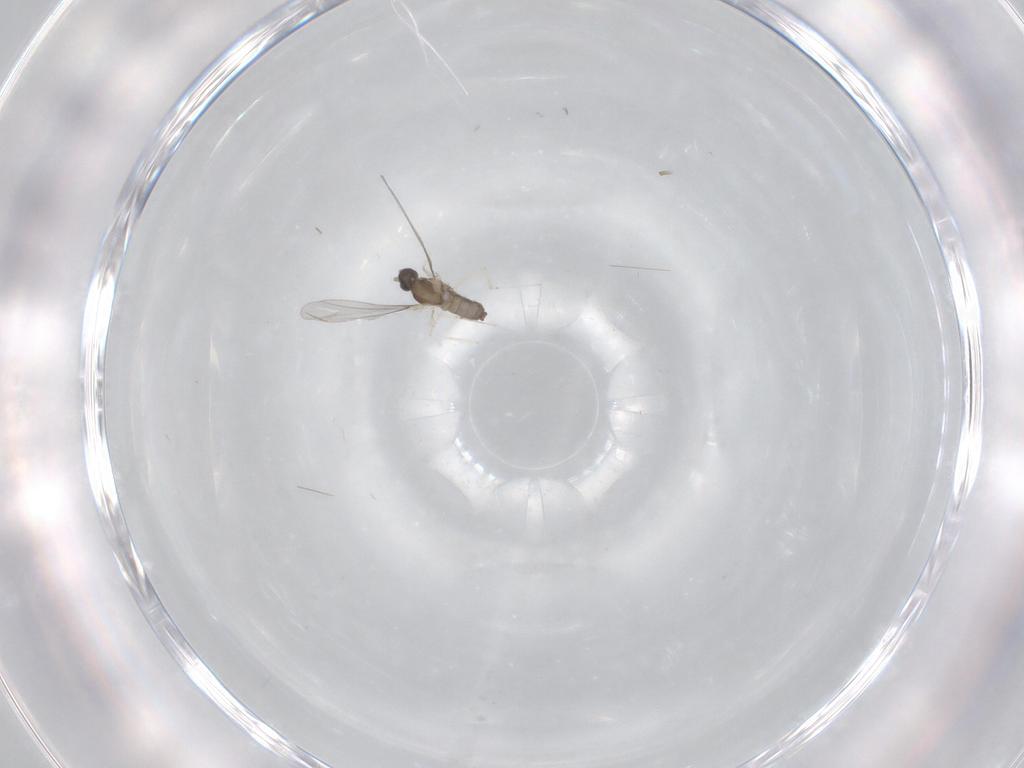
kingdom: Animalia
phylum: Arthropoda
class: Insecta
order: Diptera
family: Cecidomyiidae
